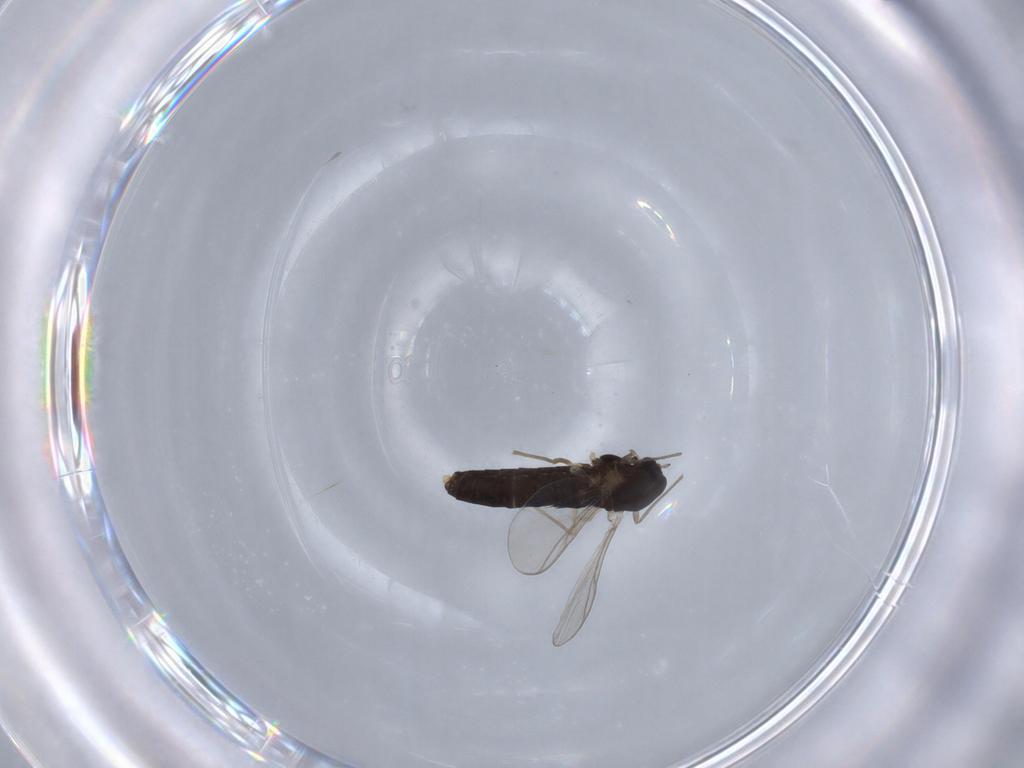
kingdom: Animalia
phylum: Arthropoda
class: Insecta
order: Diptera
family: Chironomidae
